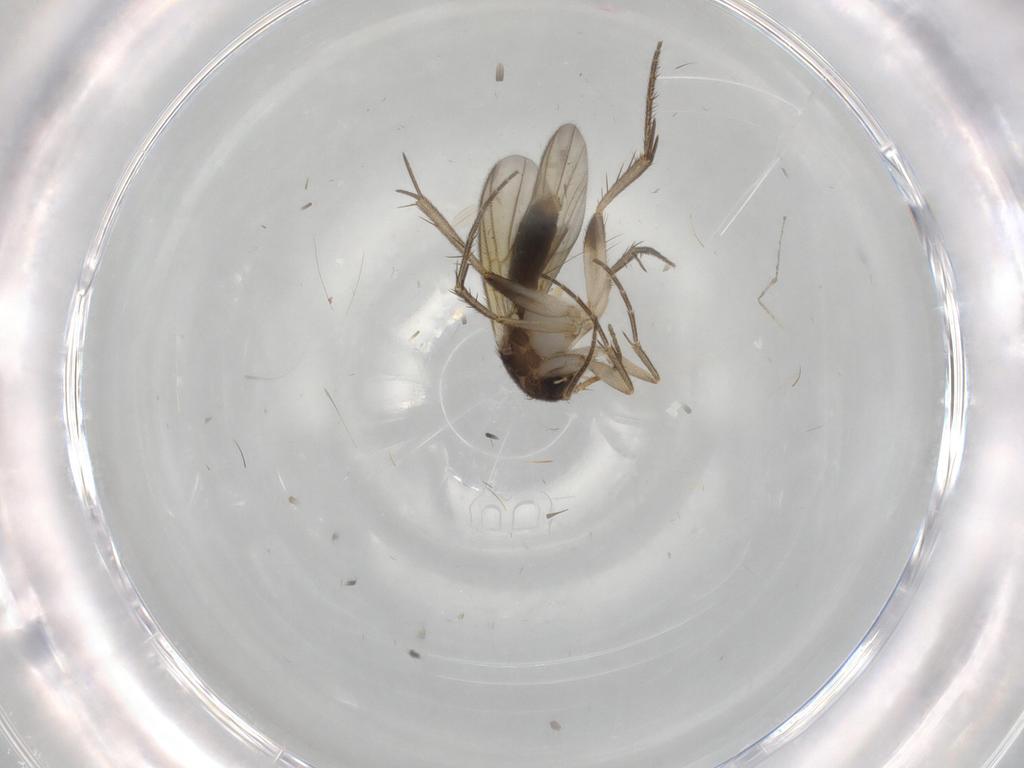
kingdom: Animalia
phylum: Arthropoda
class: Insecta
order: Diptera
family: Mycetophilidae
